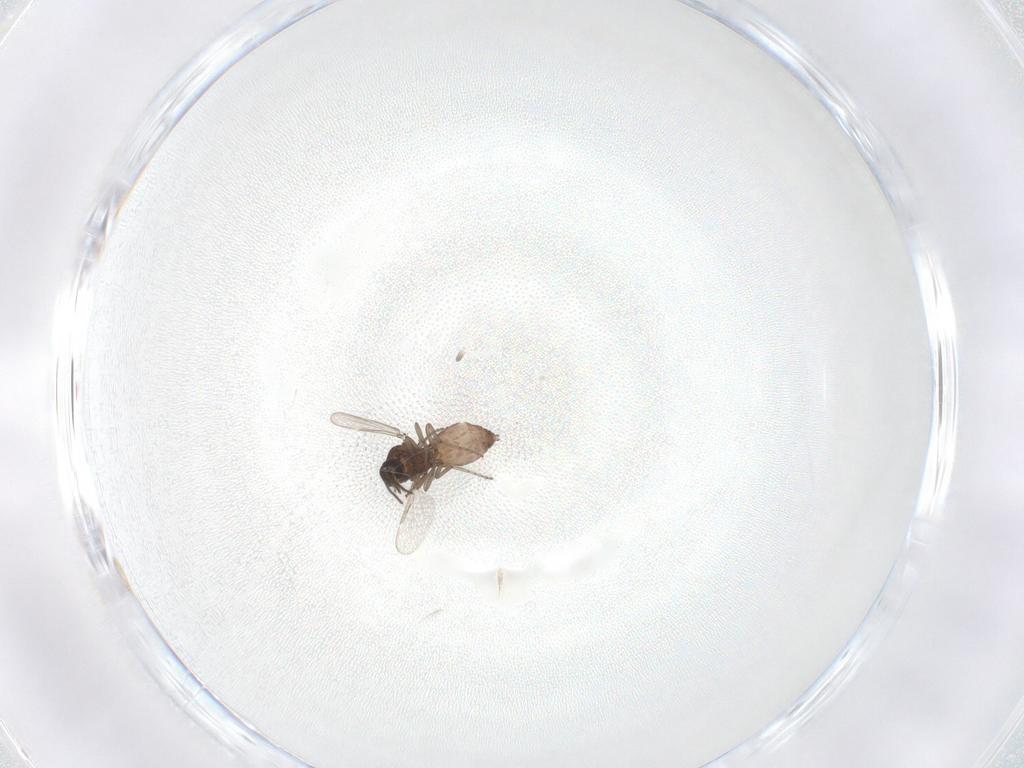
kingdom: Animalia
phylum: Arthropoda
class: Insecta
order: Diptera
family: Ceratopogonidae
